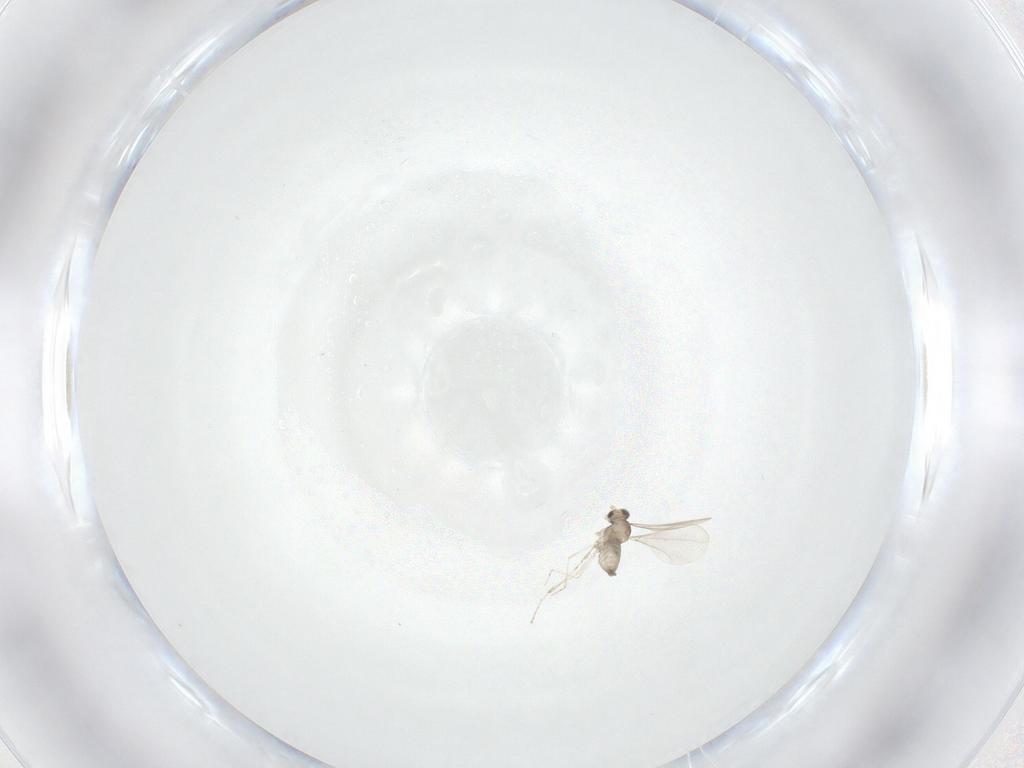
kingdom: Animalia
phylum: Arthropoda
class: Insecta
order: Diptera
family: Cecidomyiidae
